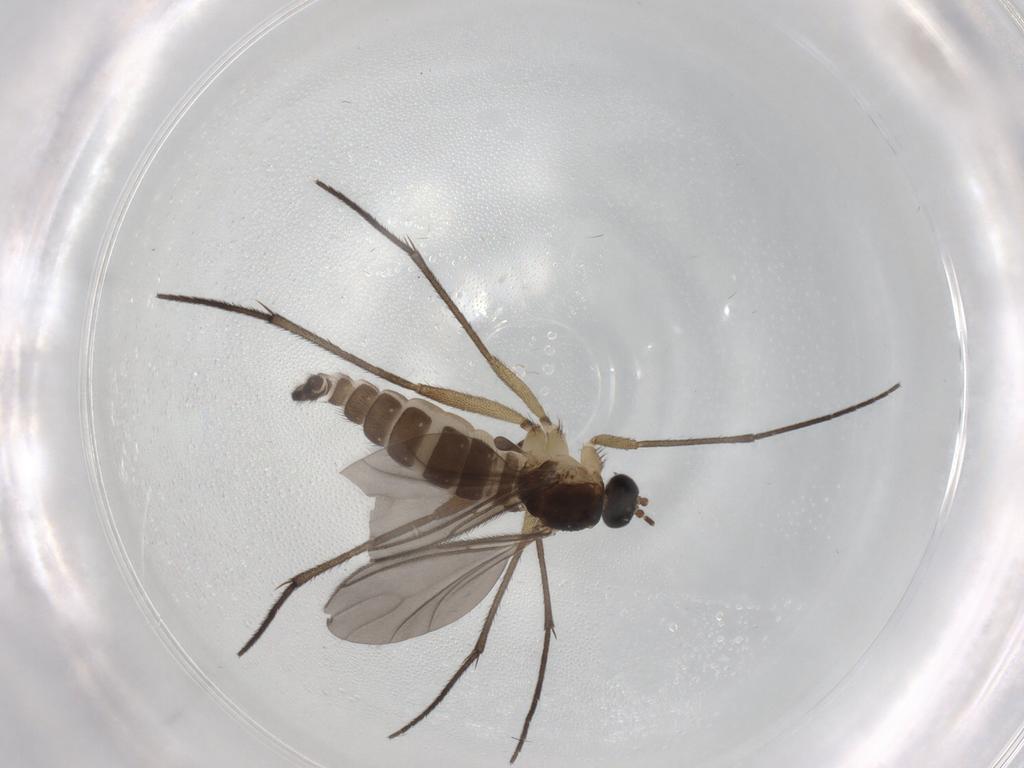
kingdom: Animalia
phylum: Arthropoda
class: Insecta
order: Diptera
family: Sciaridae
